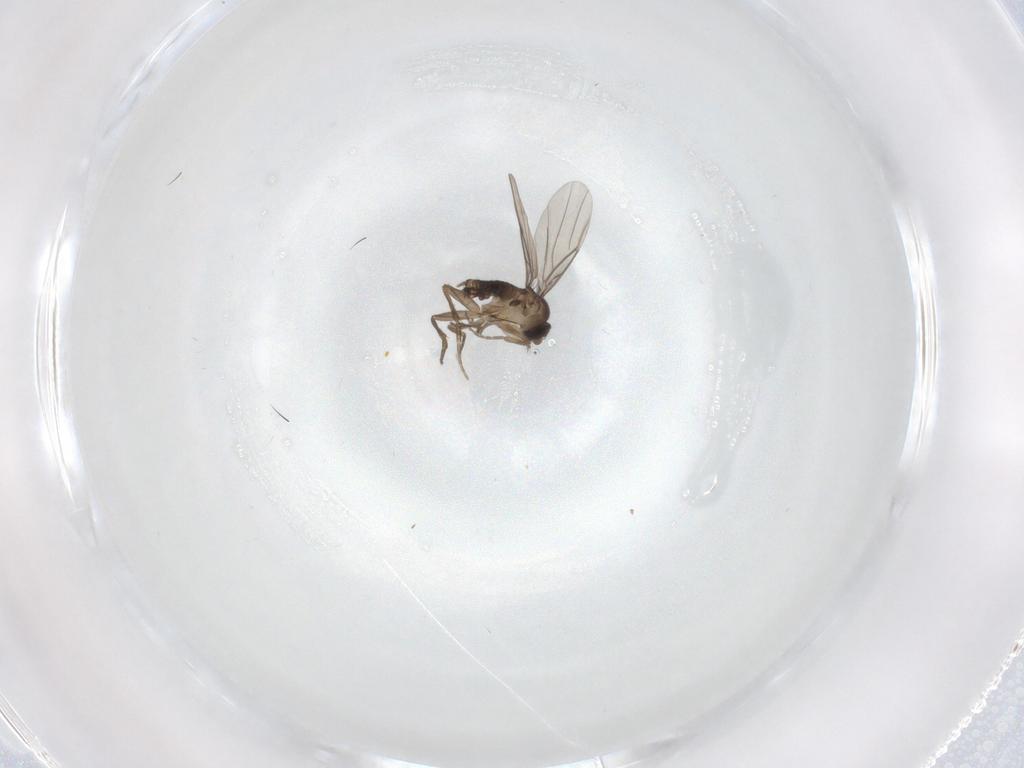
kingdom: Animalia
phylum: Arthropoda
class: Insecta
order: Diptera
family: Phoridae
